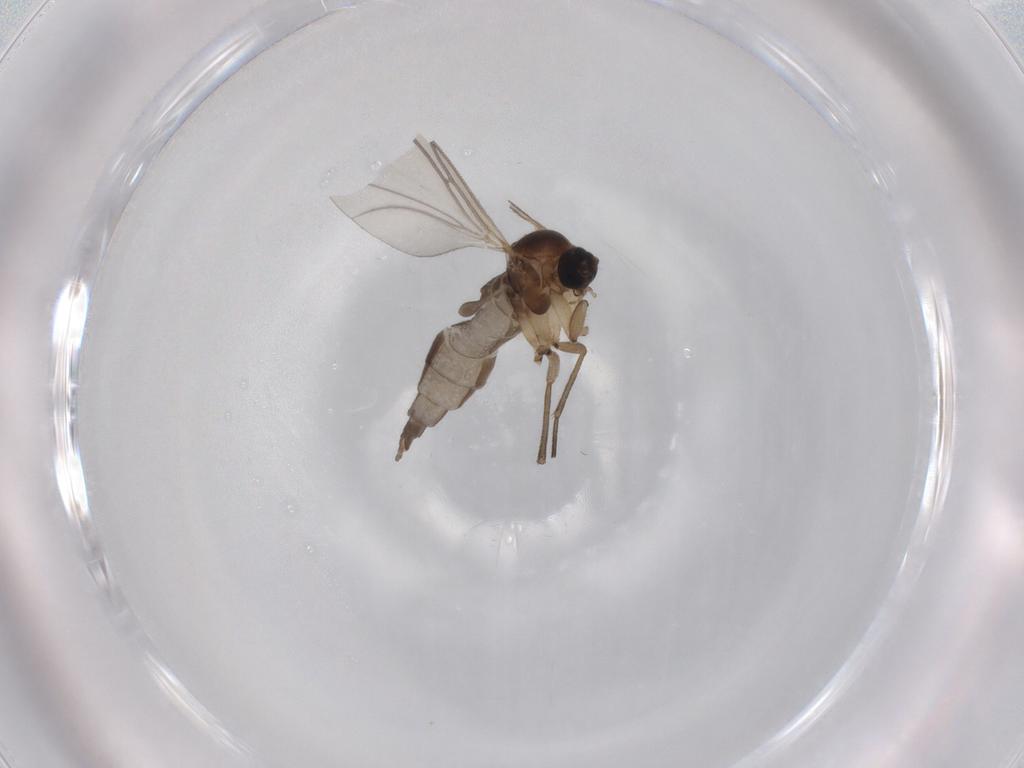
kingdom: Animalia
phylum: Arthropoda
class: Insecta
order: Diptera
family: Sciaridae
